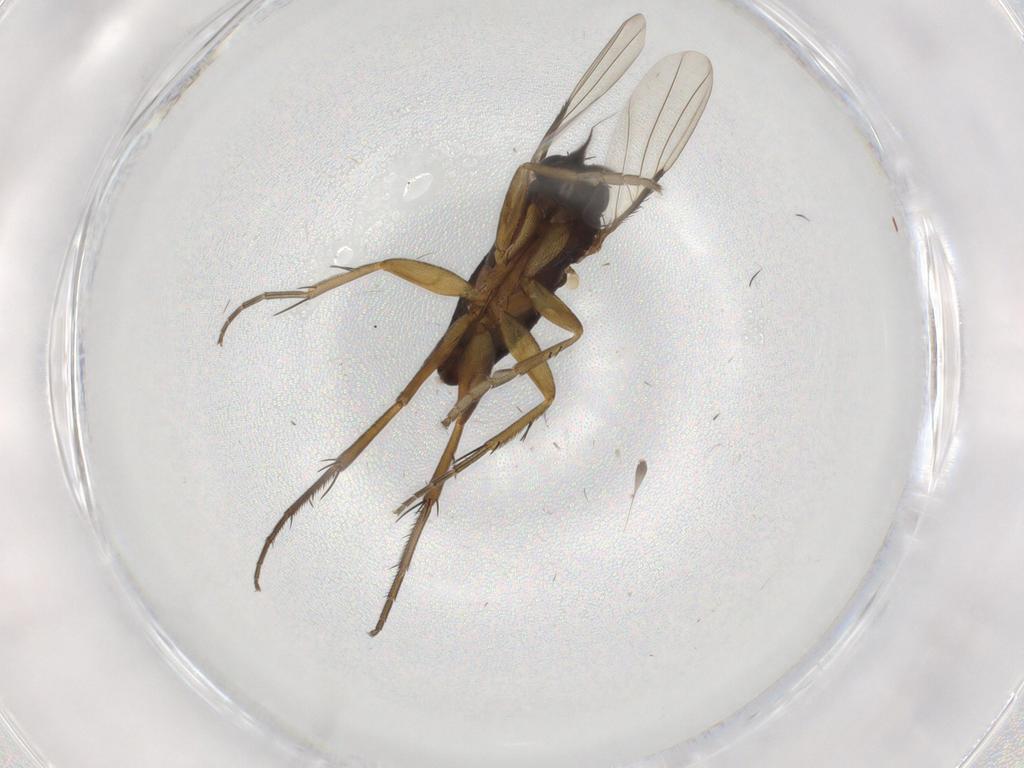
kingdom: Animalia
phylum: Arthropoda
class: Insecta
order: Diptera
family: Phoridae
